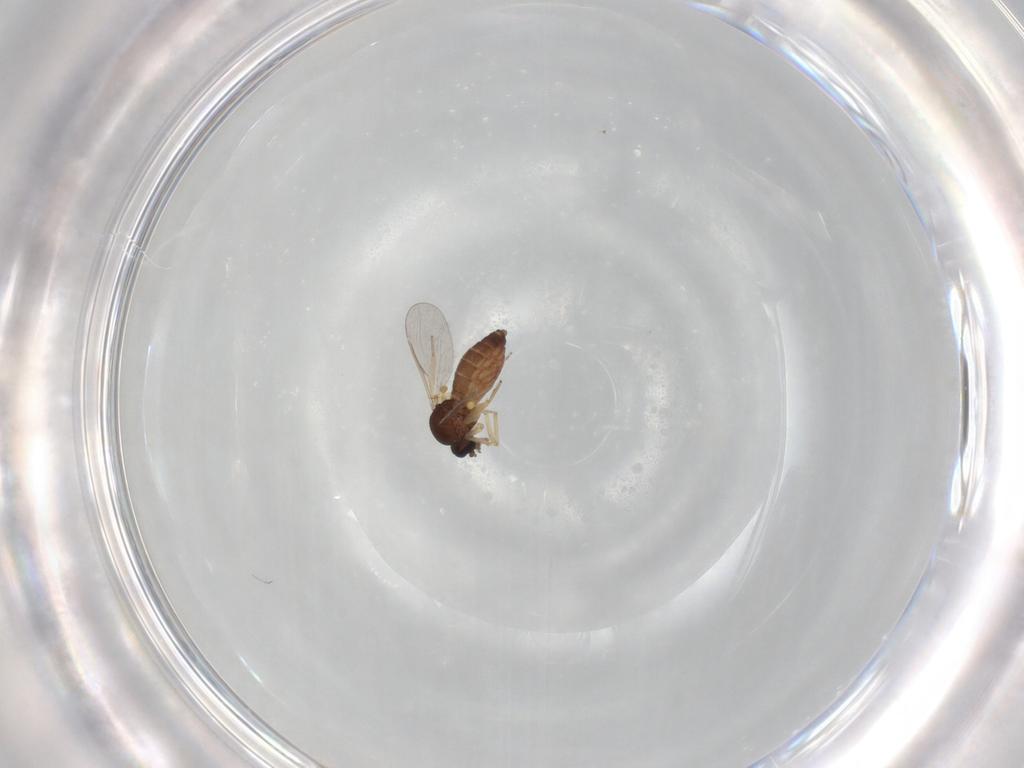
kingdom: Animalia
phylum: Arthropoda
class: Insecta
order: Diptera
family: Ceratopogonidae
